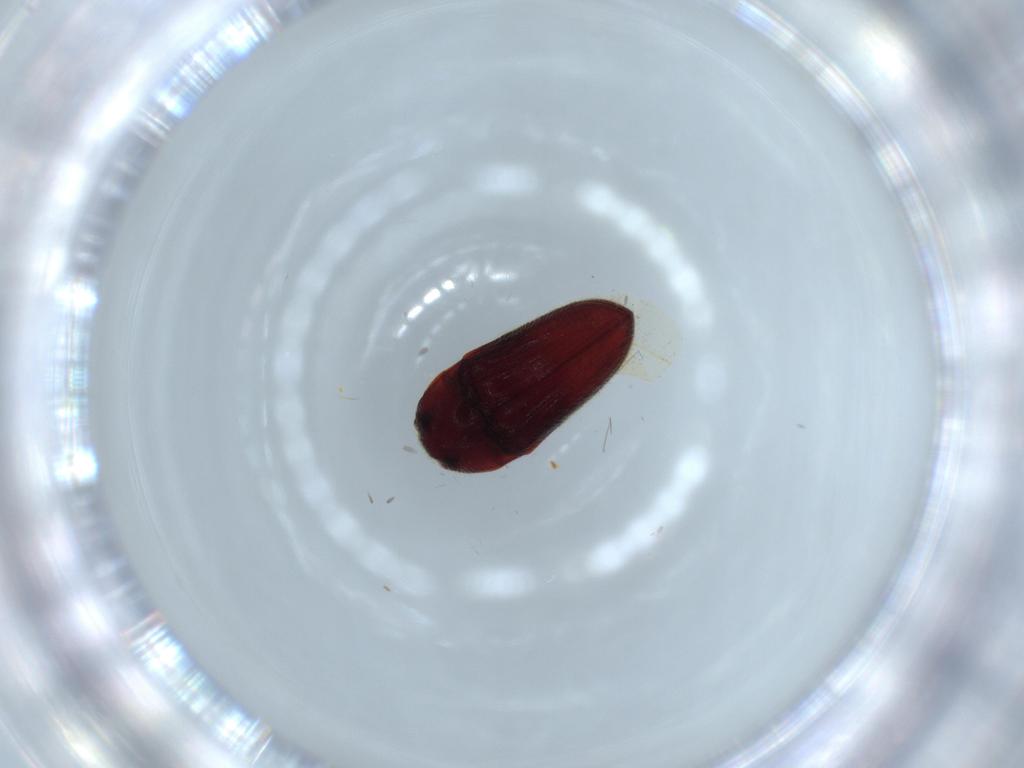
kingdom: Animalia
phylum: Arthropoda
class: Insecta
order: Coleoptera
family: Throscidae
